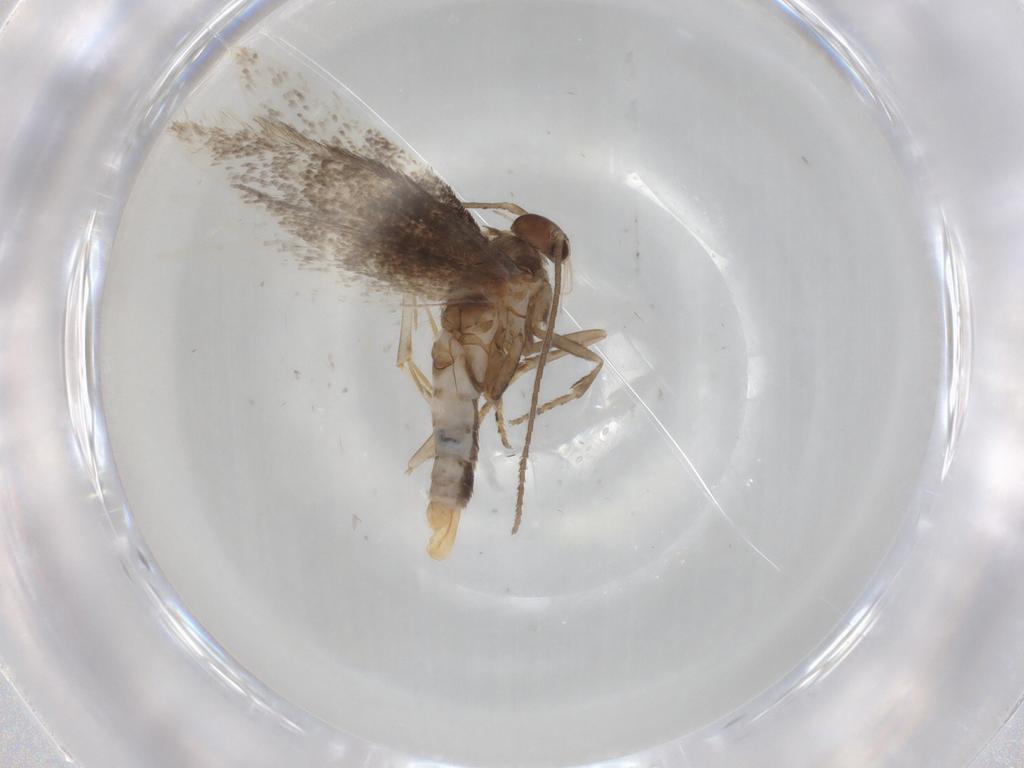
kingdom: Animalia
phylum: Arthropoda
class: Insecta
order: Lepidoptera
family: Elachistidae
